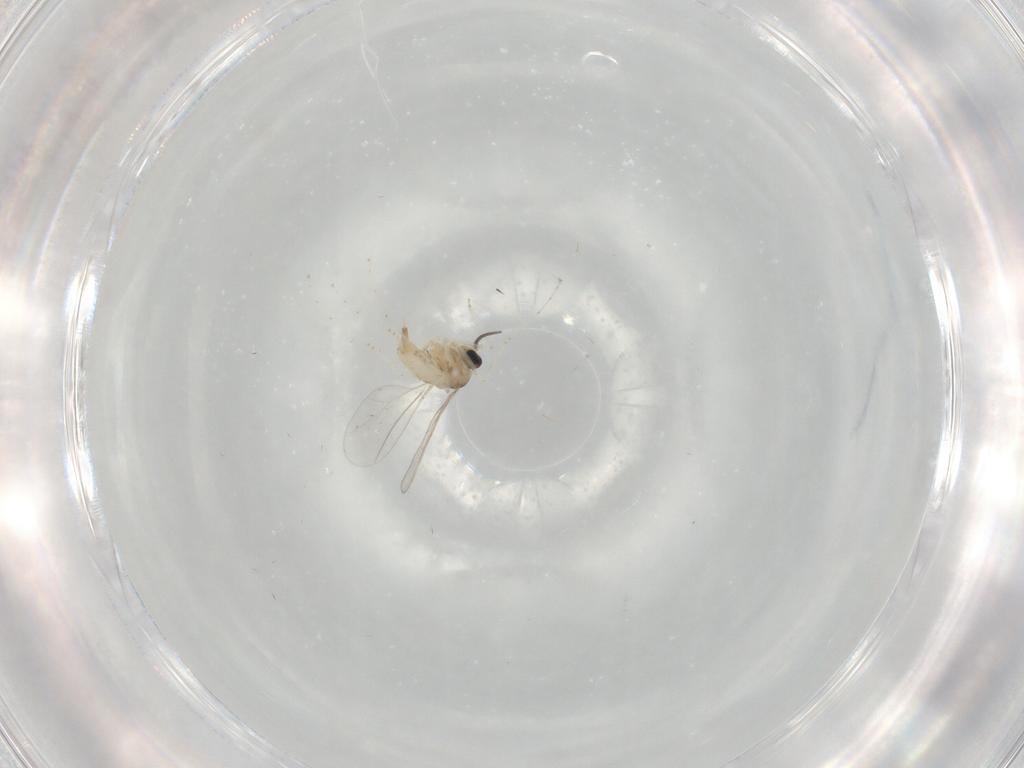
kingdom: Animalia
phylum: Arthropoda
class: Insecta
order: Diptera
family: Cecidomyiidae
